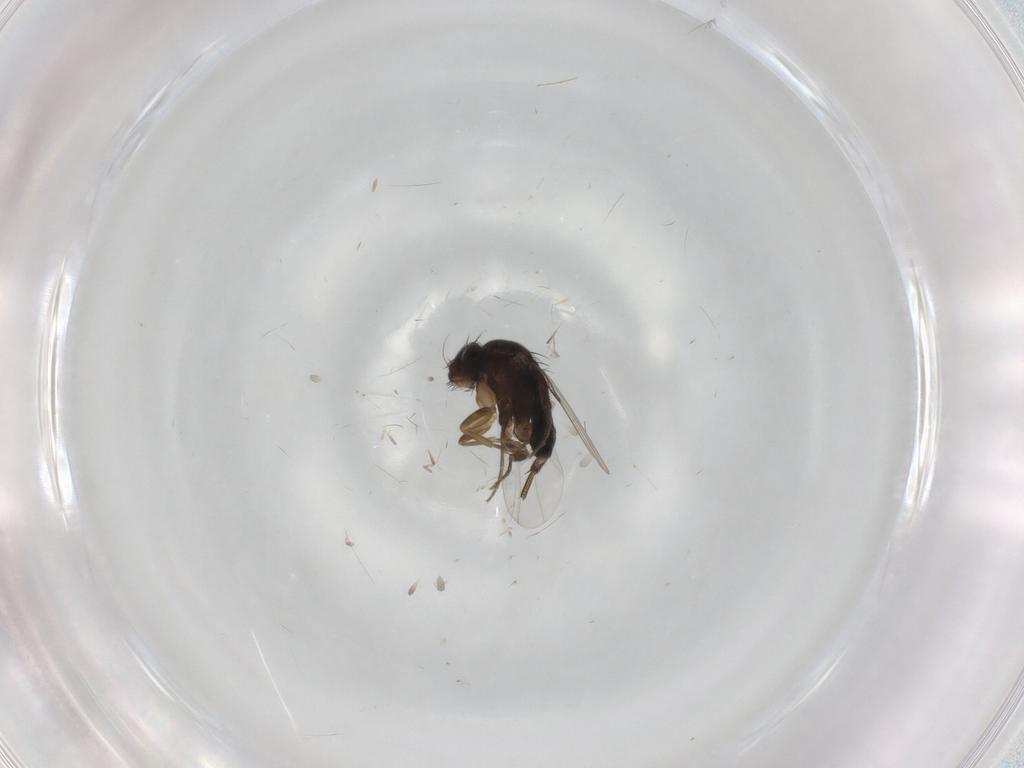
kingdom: Animalia
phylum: Arthropoda
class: Insecta
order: Diptera
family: Phoridae
